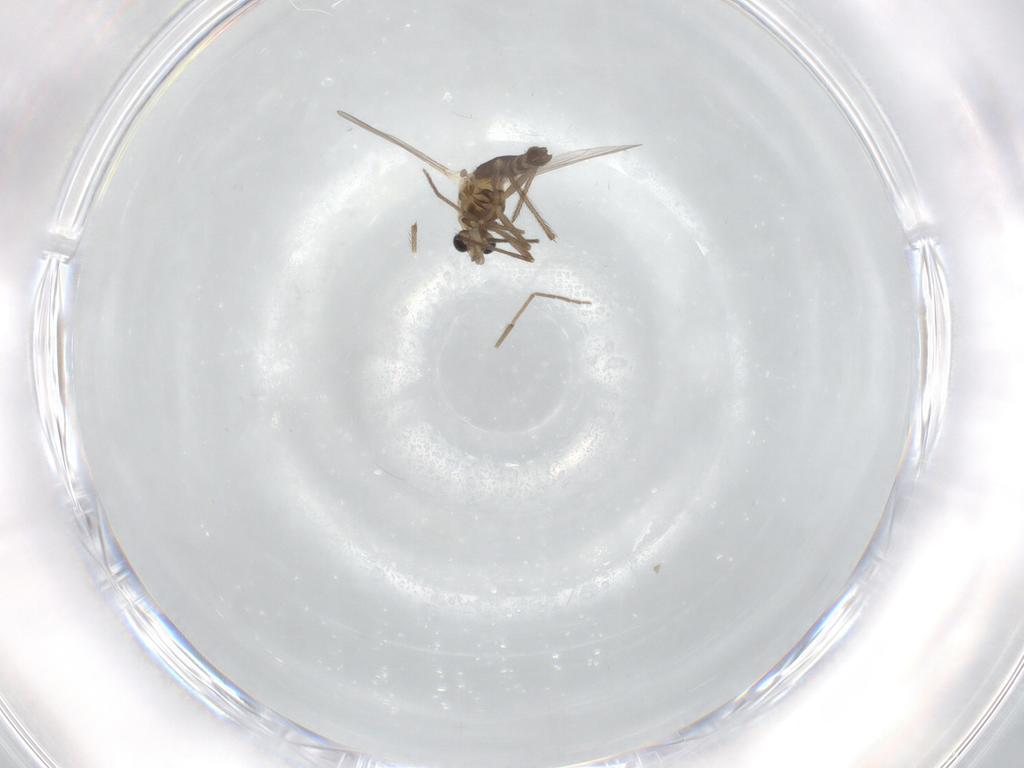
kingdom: Animalia
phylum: Arthropoda
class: Insecta
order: Diptera
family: Chironomidae
